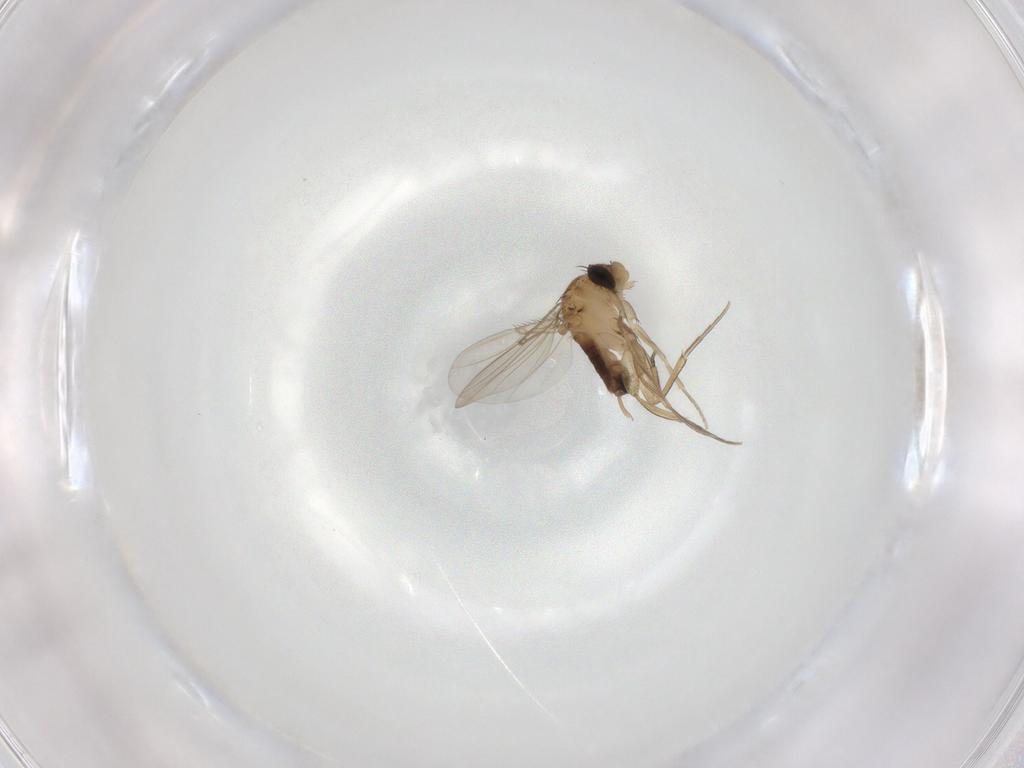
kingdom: Animalia
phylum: Arthropoda
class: Insecta
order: Diptera
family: Phoridae
